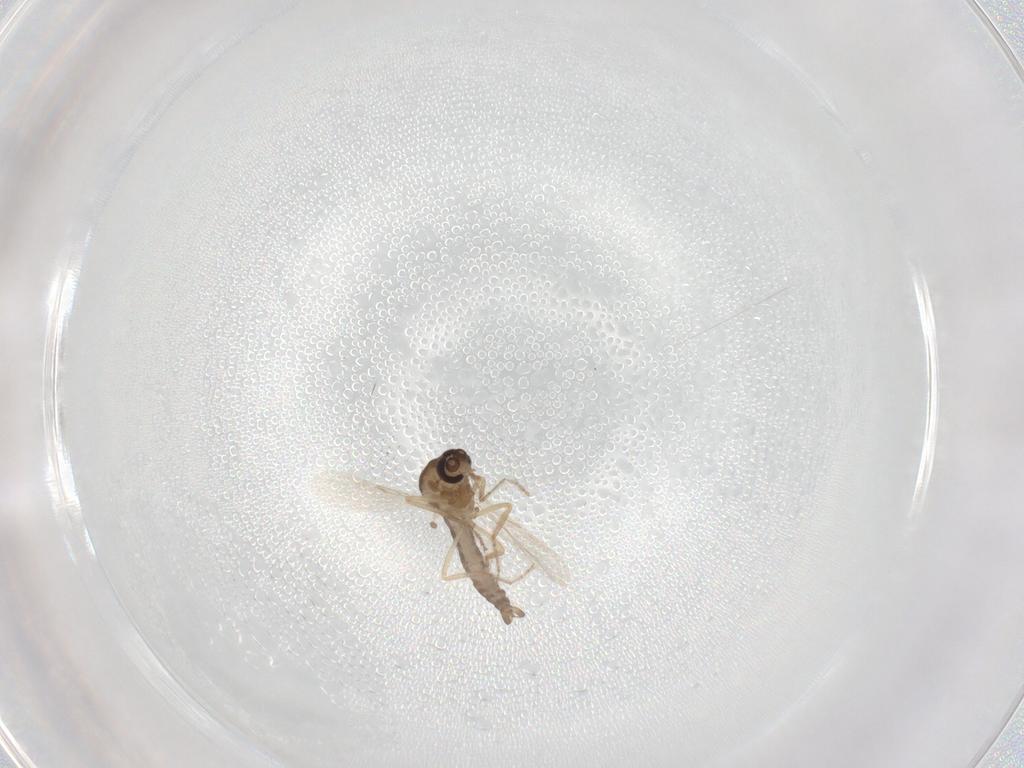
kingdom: Animalia
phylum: Arthropoda
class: Insecta
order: Diptera
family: Ceratopogonidae
